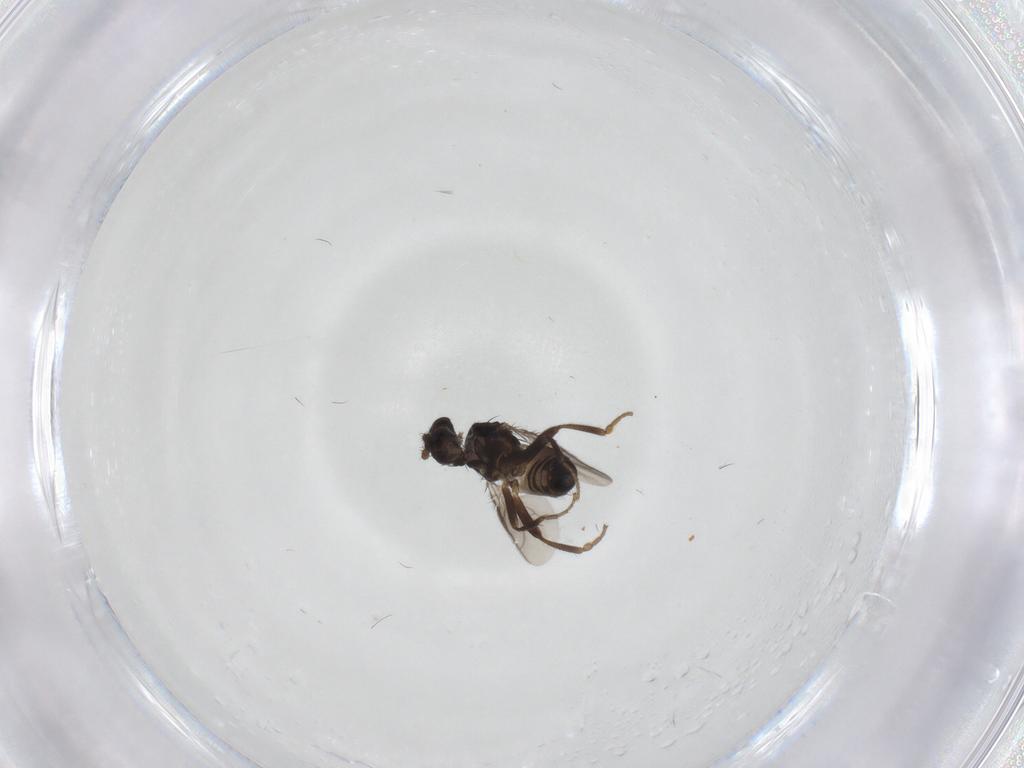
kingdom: Animalia
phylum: Arthropoda
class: Insecta
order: Diptera
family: Sphaeroceridae
